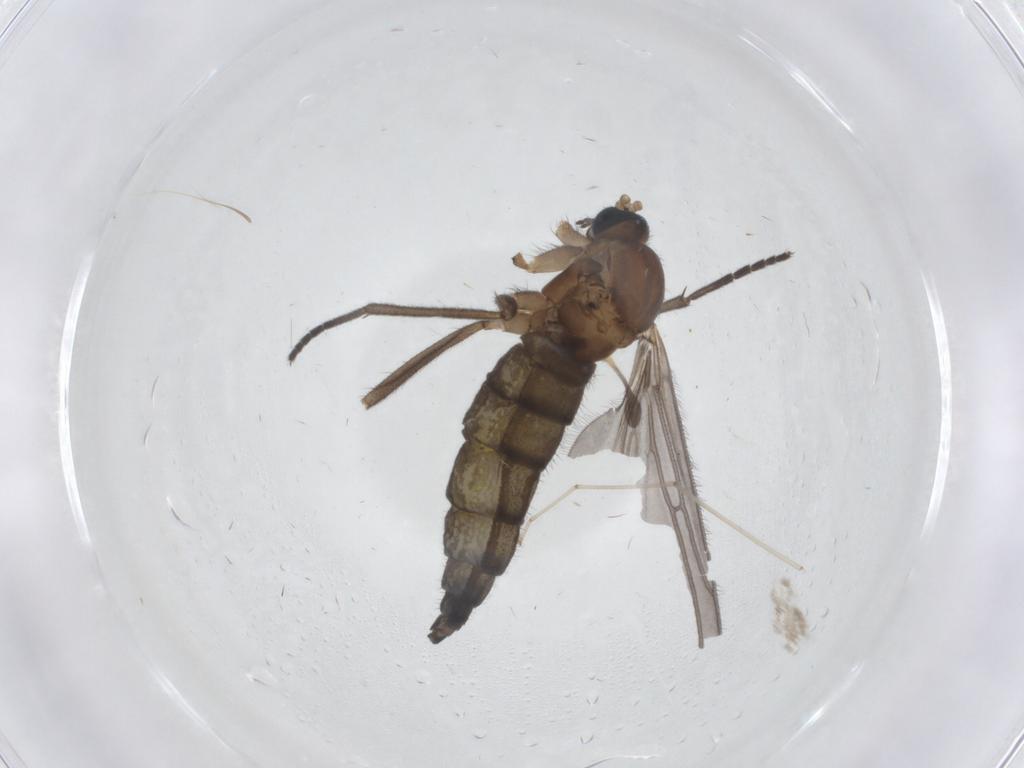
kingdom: Animalia
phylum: Arthropoda
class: Insecta
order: Diptera
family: Sciaridae
